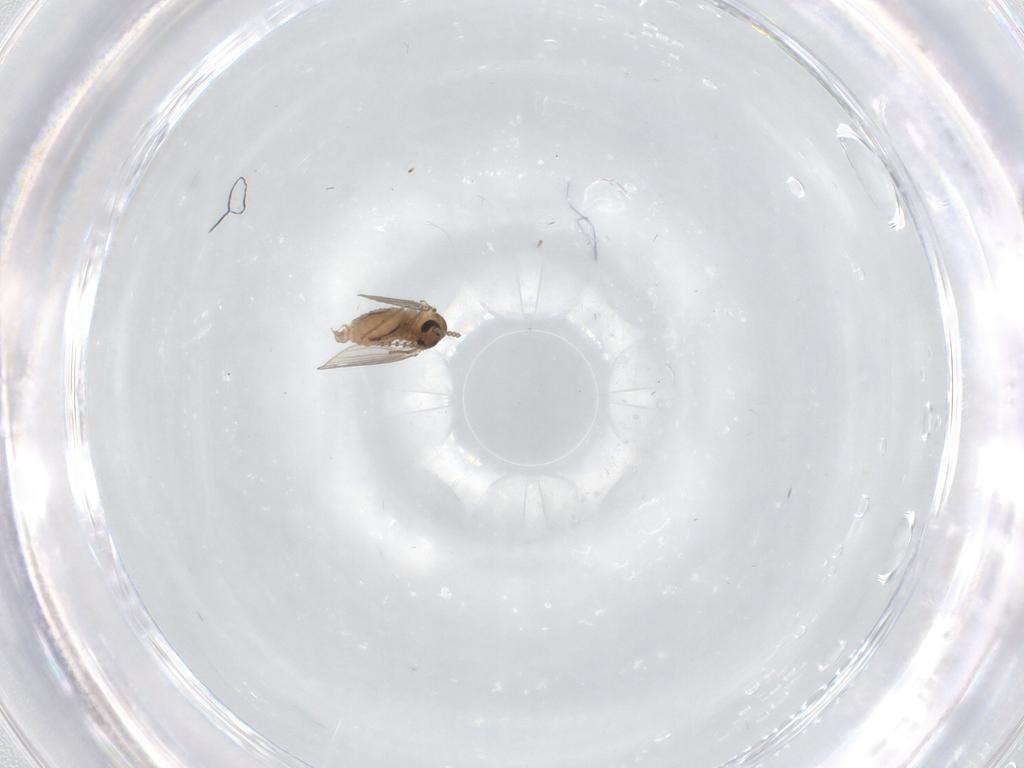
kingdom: Animalia
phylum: Arthropoda
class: Insecta
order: Diptera
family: Psychodidae
